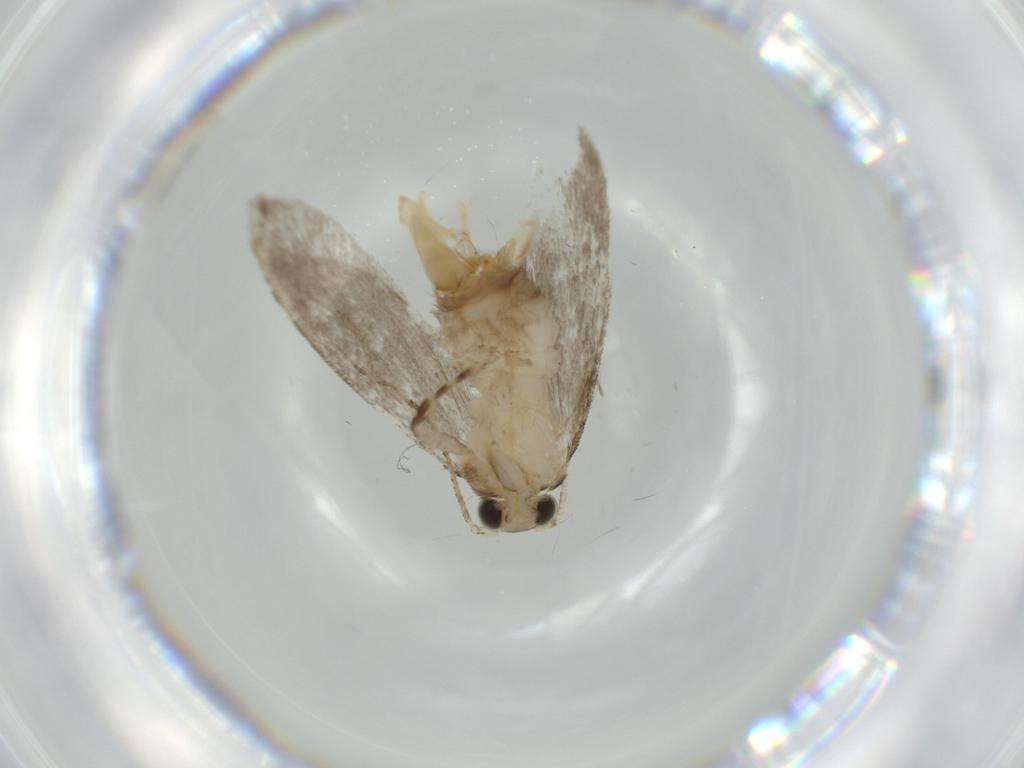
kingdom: Animalia
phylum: Arthropoda
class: Insecta
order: Lepidoptera
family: Tineidae
